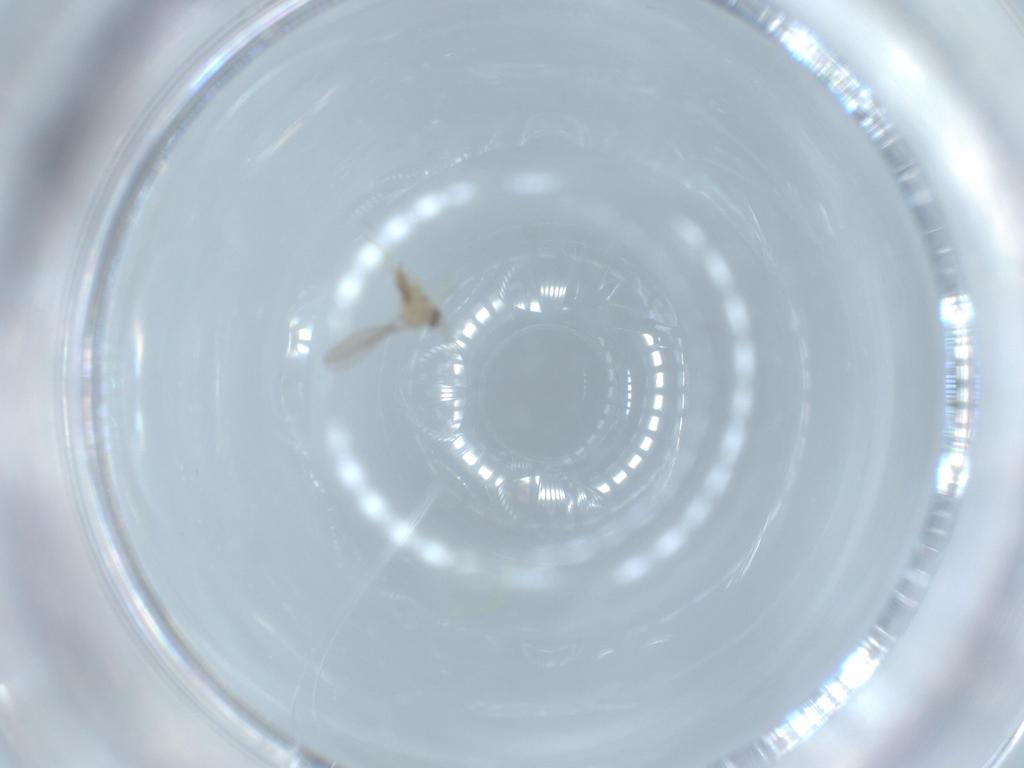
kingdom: Animalia
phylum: Arthropoda
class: Insecta
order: Diptera
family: Cecidomyiidae
